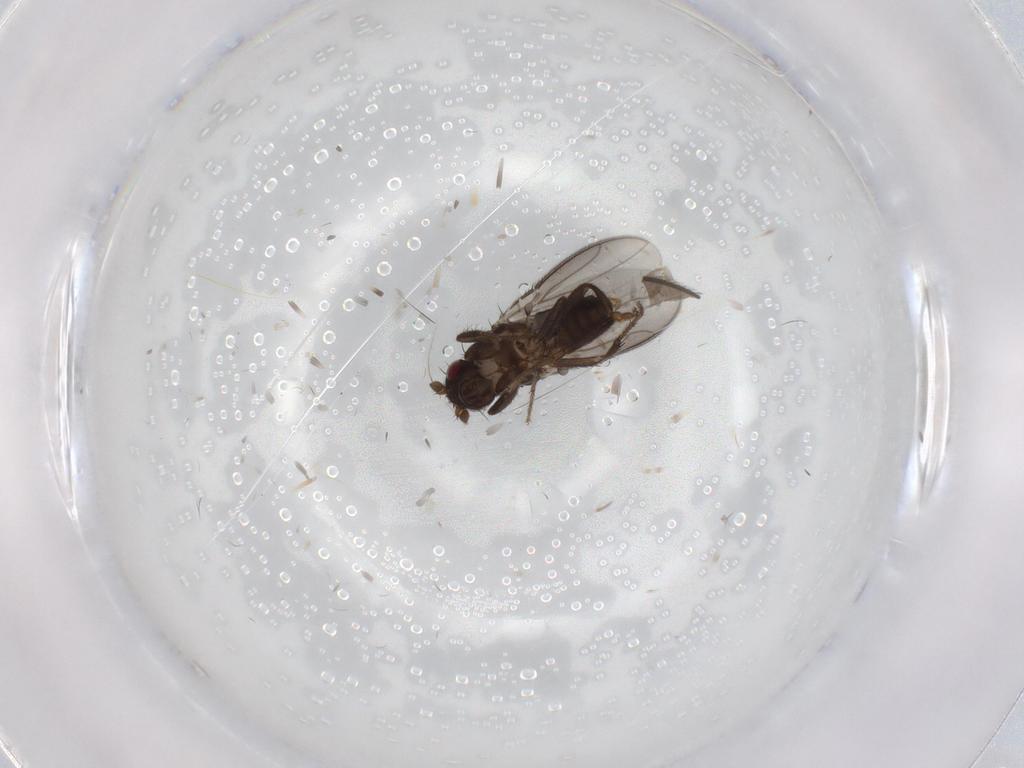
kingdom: Animalia
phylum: Arthropoda
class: Insecta
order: Diptera
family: Sphaeroceridae
